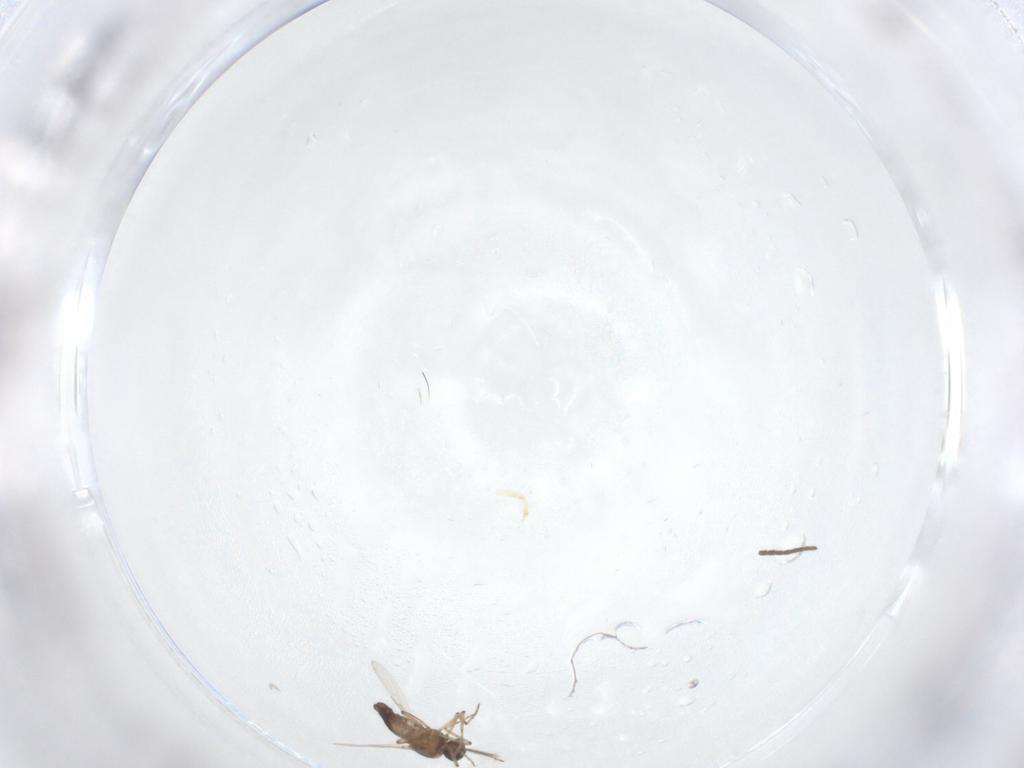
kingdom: Animalia
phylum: Arthropoda
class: Insecta
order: Diptera
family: Ceratopogonidae
